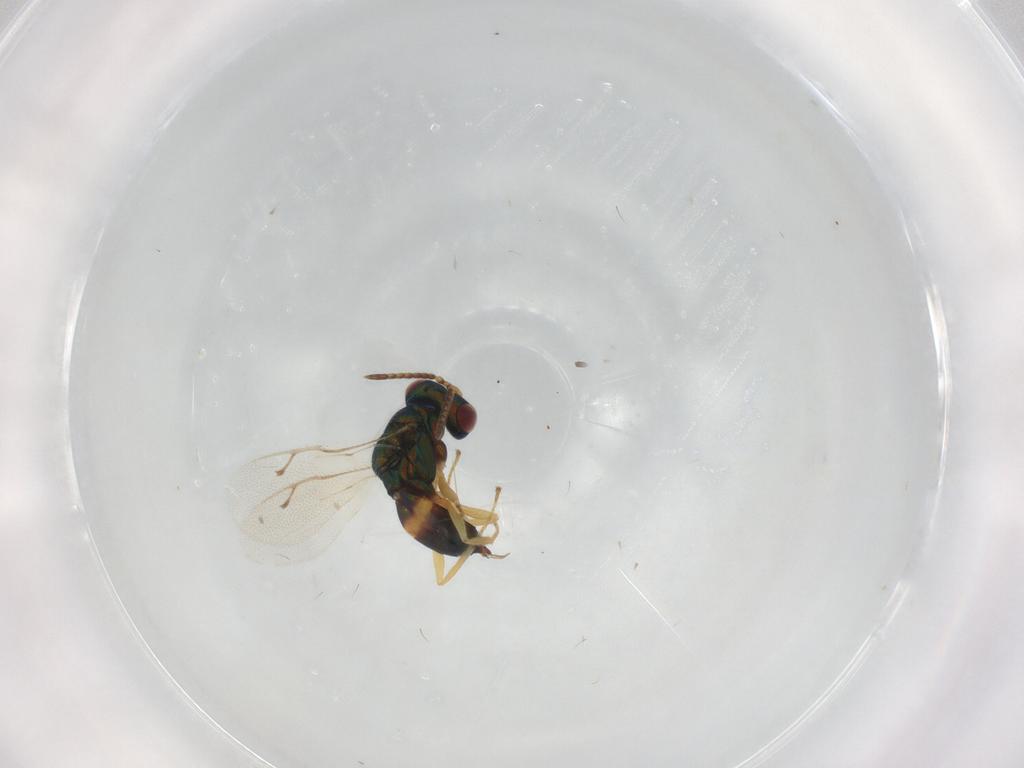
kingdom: Animalia
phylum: Arthropoda
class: Insecta
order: Hymenoptera
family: Pteromalidae
